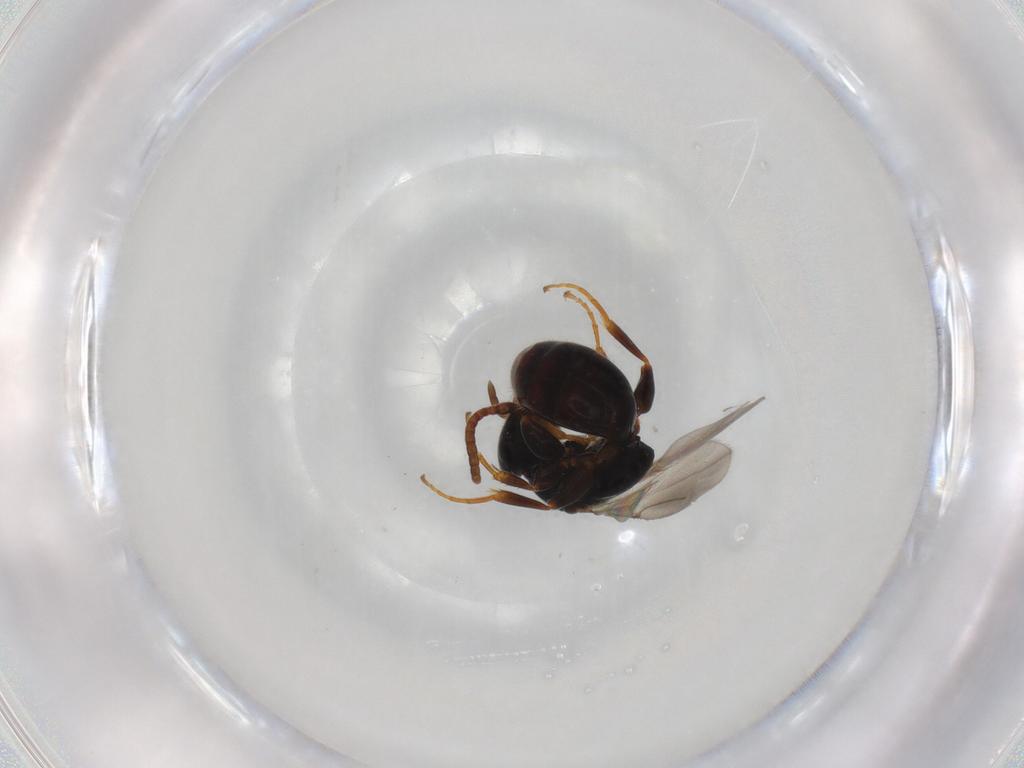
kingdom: Animalia
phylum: Arthropoda
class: Insecta
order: Hymenoptera
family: Bethylidae
